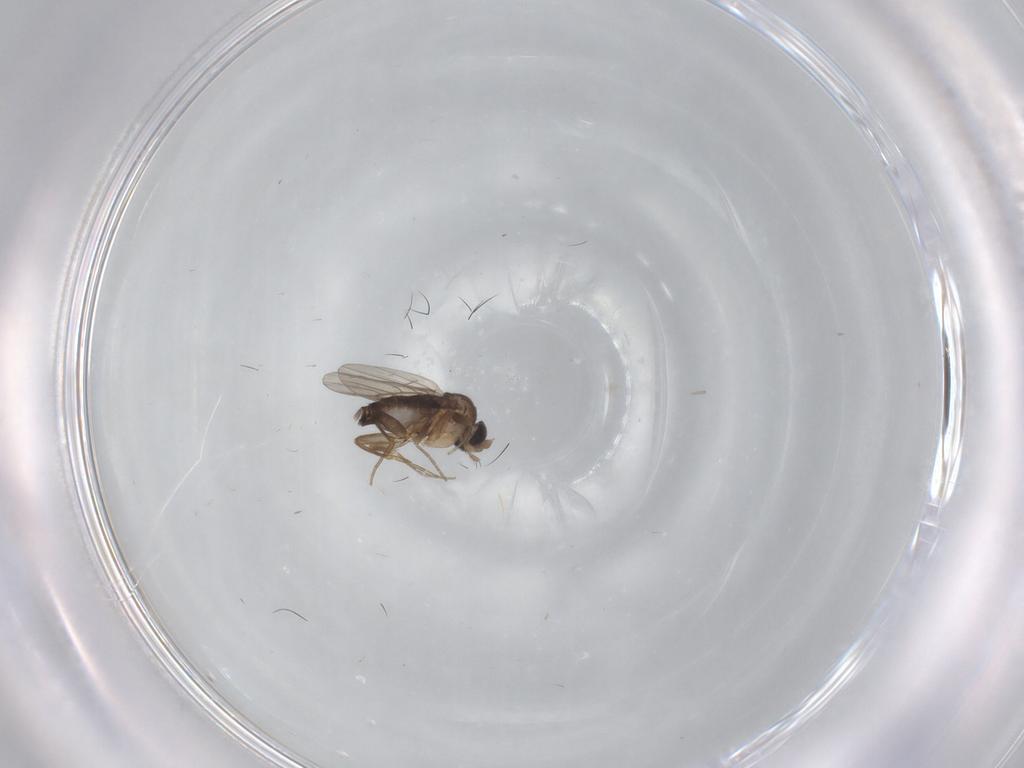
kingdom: Animalia
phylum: Arthropoda
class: Insecta
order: Diptera
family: Phoridae
